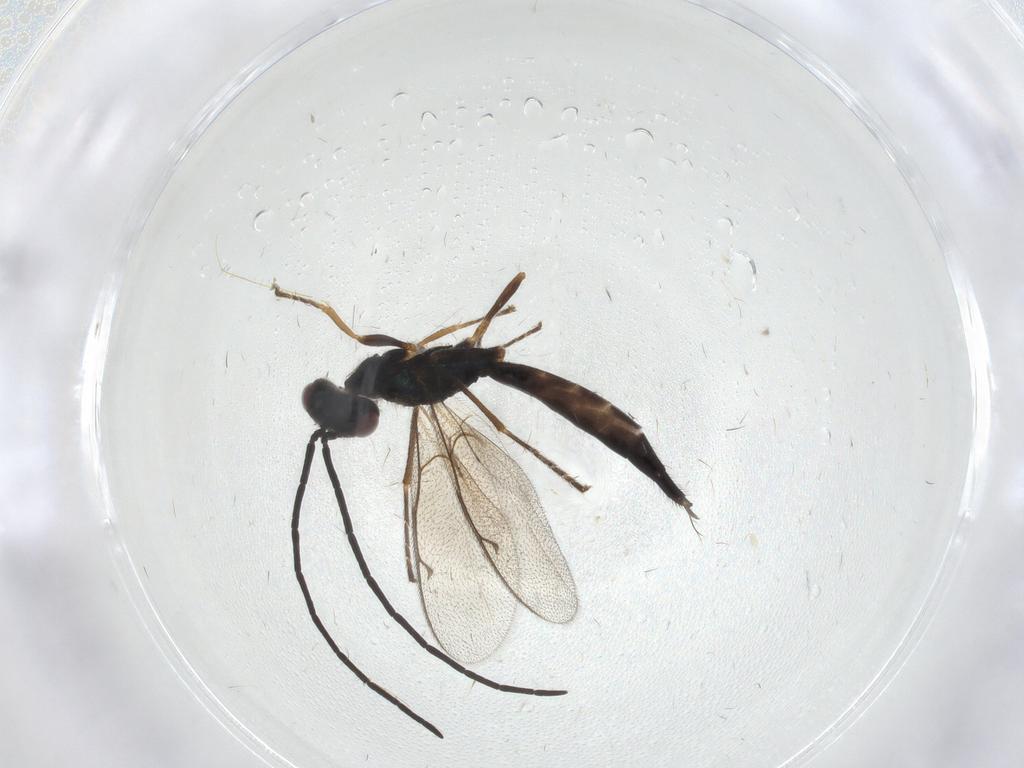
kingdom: Animalia
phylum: Arthropoda
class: Insecta
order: Hymenoptera
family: Pteromalidae
